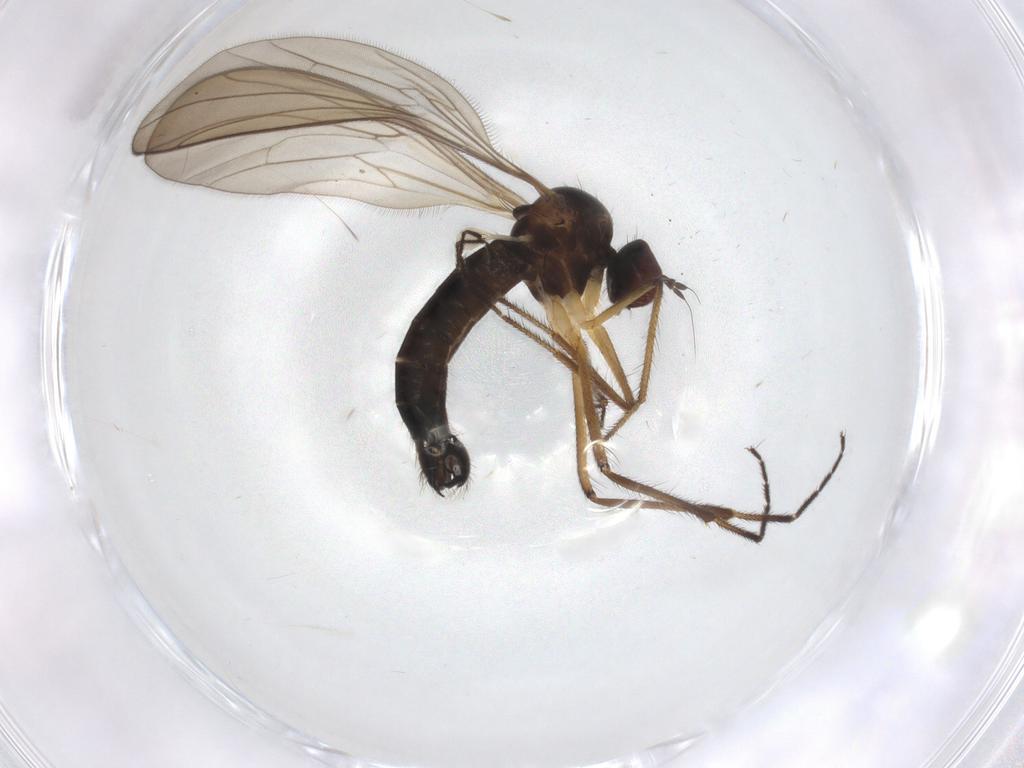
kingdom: Animalia
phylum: Arthropoda
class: Insecta
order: Diptera
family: Hybotidae
